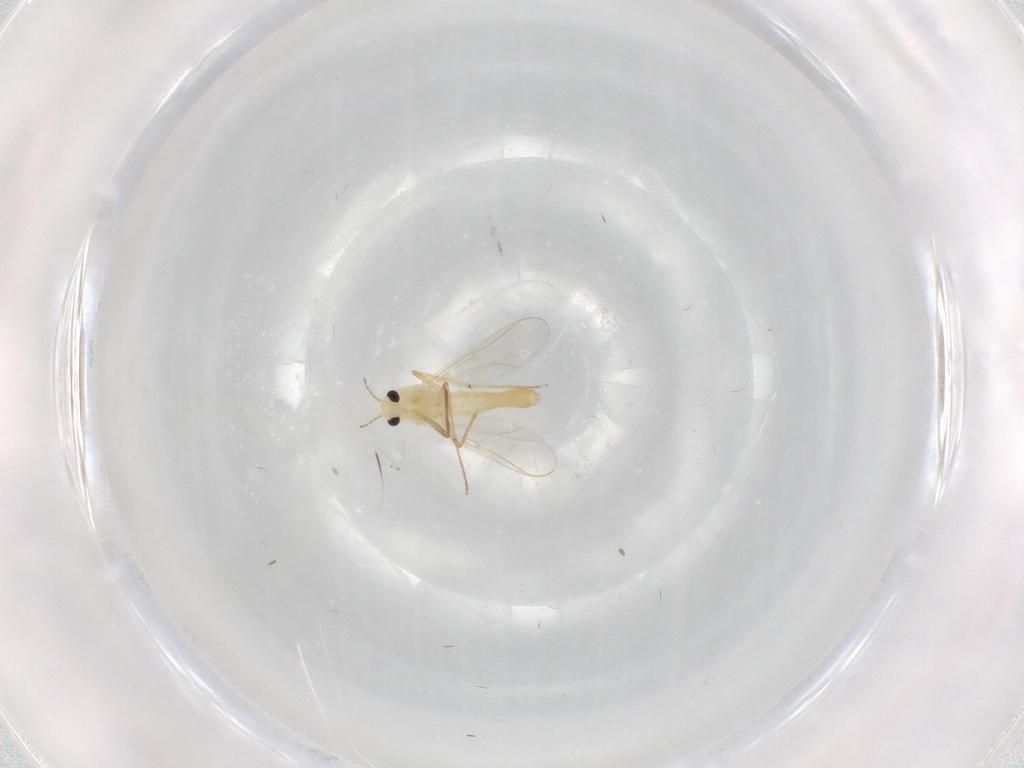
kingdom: Animalia
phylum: Arthropoda
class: Insecta
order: Diptera
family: Chironomidae
